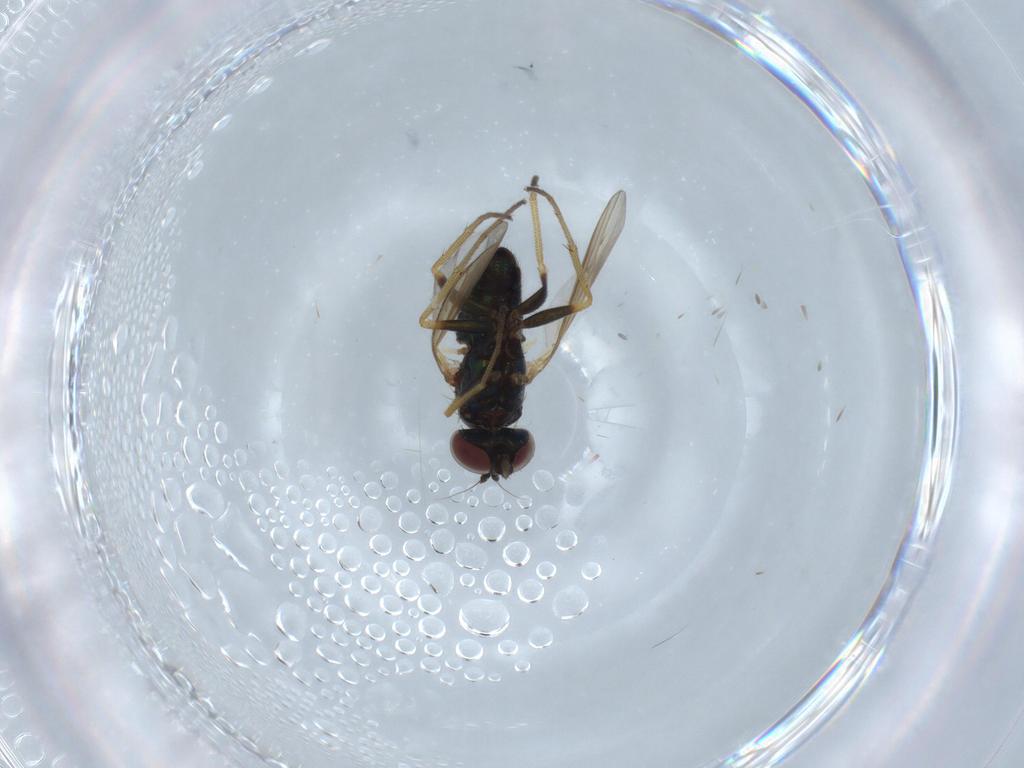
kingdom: Animalia
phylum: Arthropoda
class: Insecta
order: Diptera
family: Dolichopodidae
